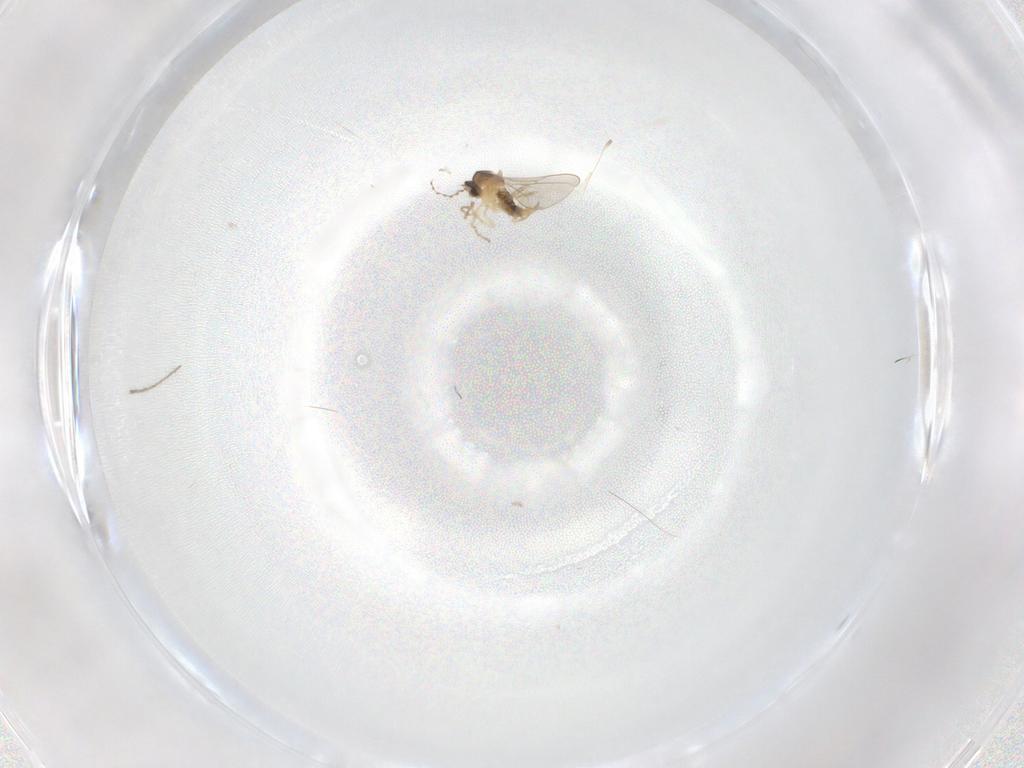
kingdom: Animalia
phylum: Arthropoda
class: Insecta
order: Diptera
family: Cecidomyiidae
